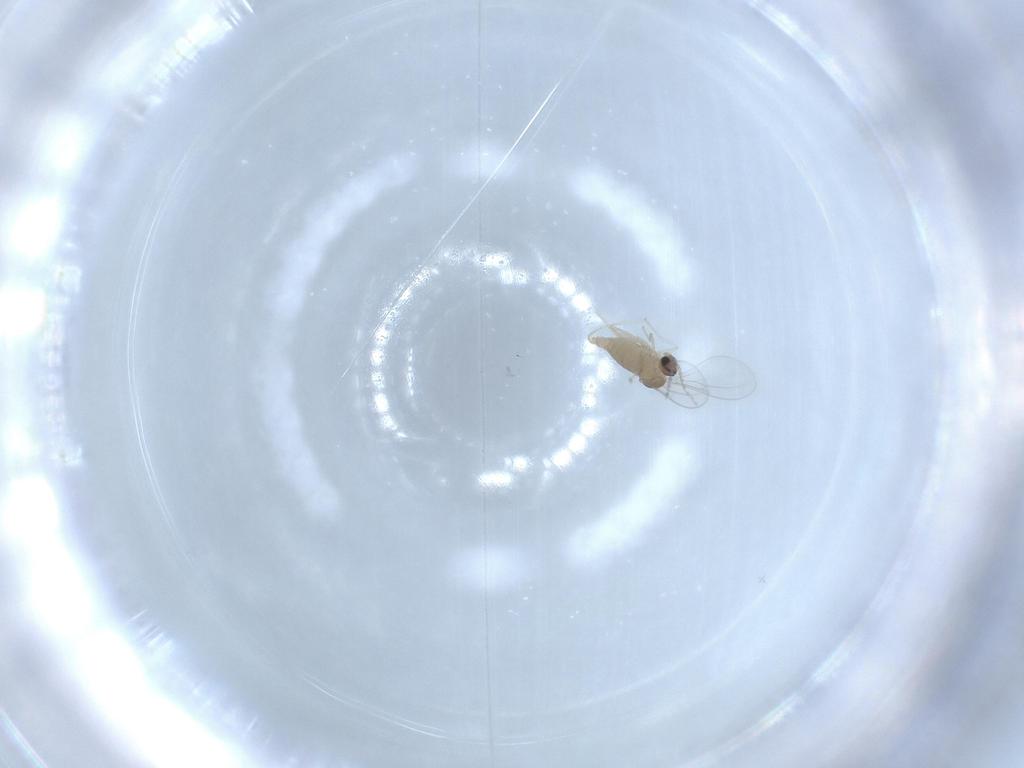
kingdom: Animalia
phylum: Arthropoda
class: Insecta
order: Diptera
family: Cecidomyiidae
